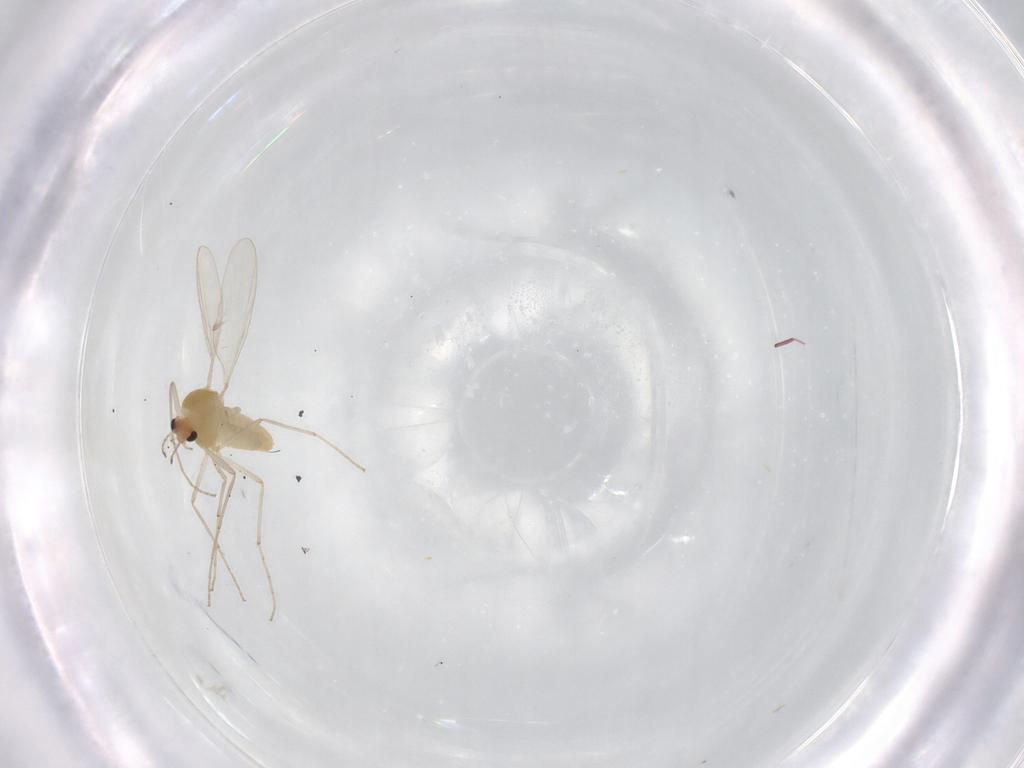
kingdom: Animalia
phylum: Arthropoda
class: Insecta
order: Diptera
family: Chironomidae
